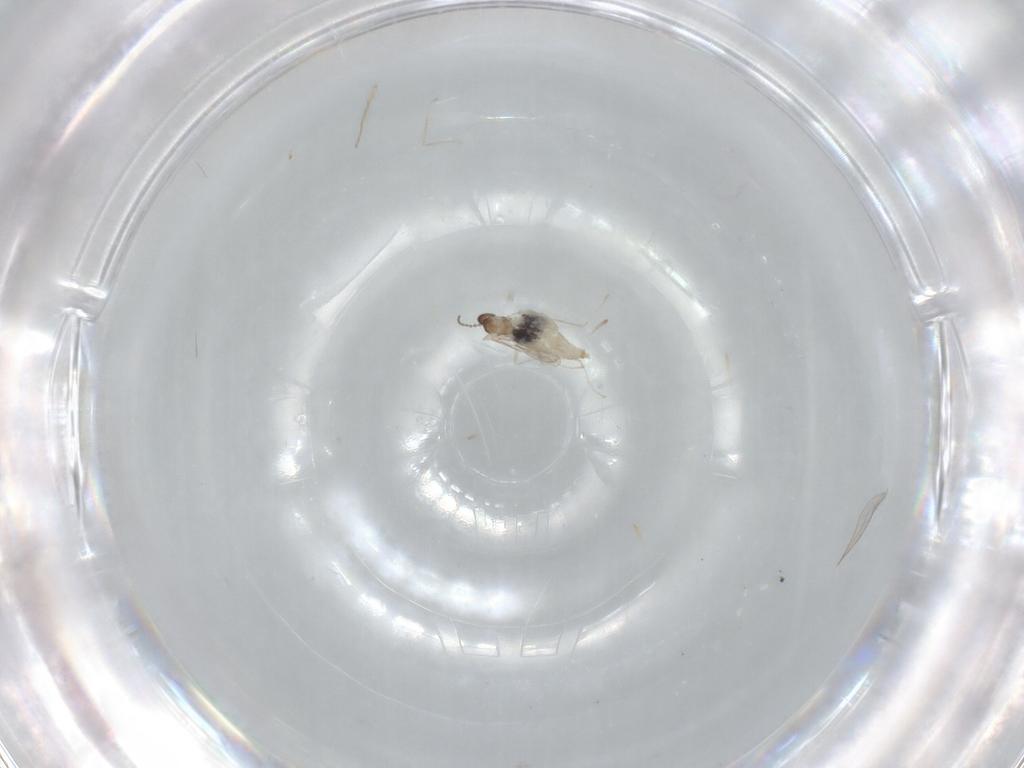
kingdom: Animalia
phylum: Arthropoda
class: Insecta
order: Diptera
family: Cecidomyiidae
